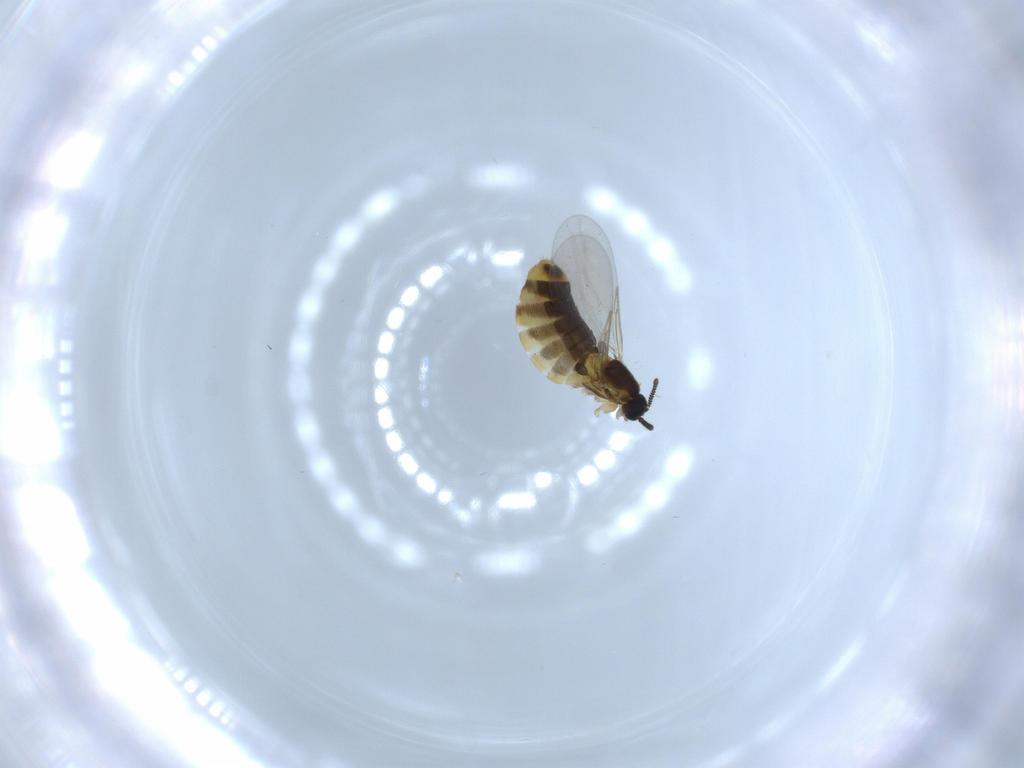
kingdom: Animalia
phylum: Arthropoda
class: Insecta
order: Diptera
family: Scatopsidae
